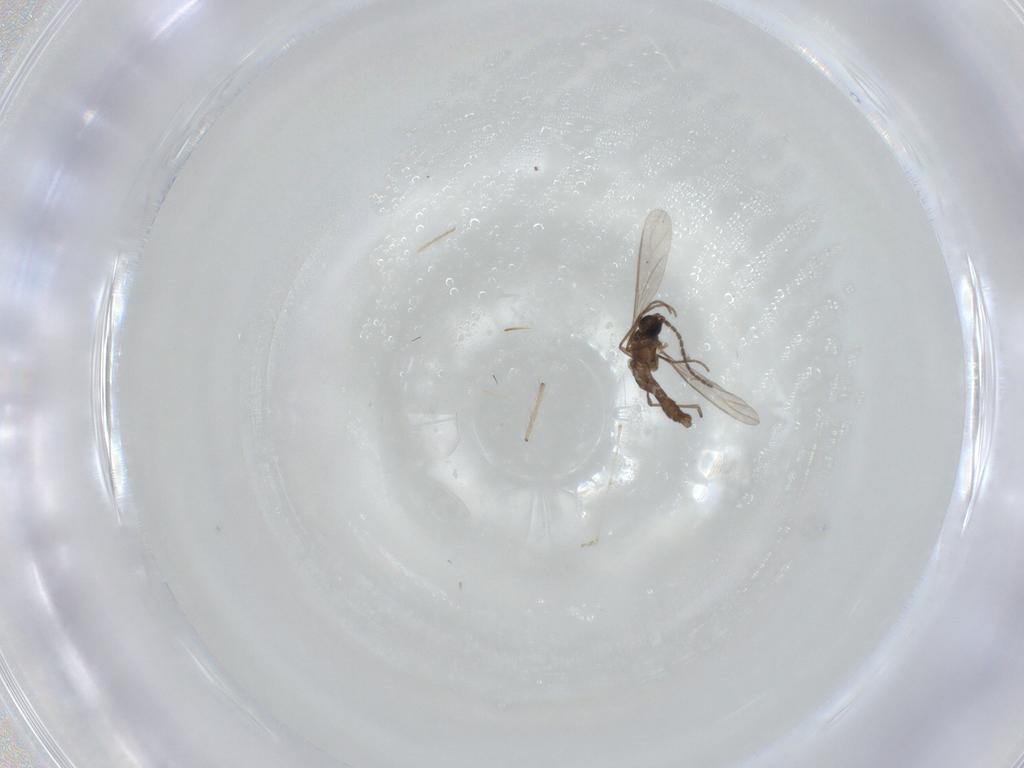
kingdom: Animalia
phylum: Arthropoda
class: Insecta
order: Diptera
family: Sciaridae
